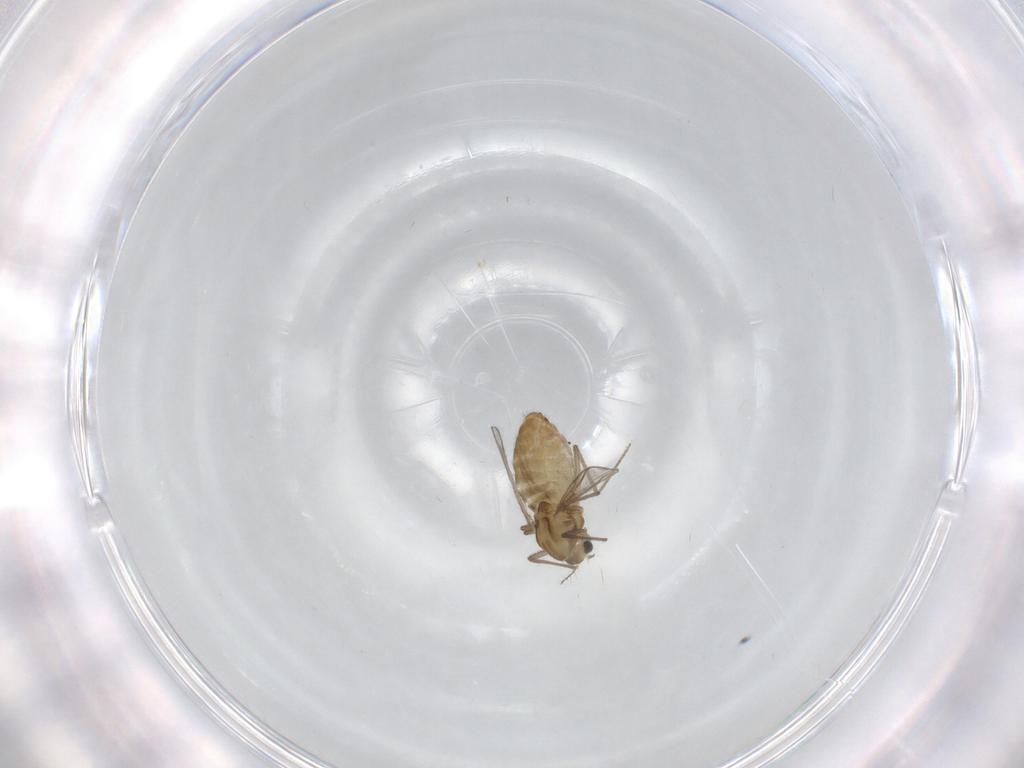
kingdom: Animalia
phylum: Arthropoda
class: Insecta
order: Diptera
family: Chironomidae
